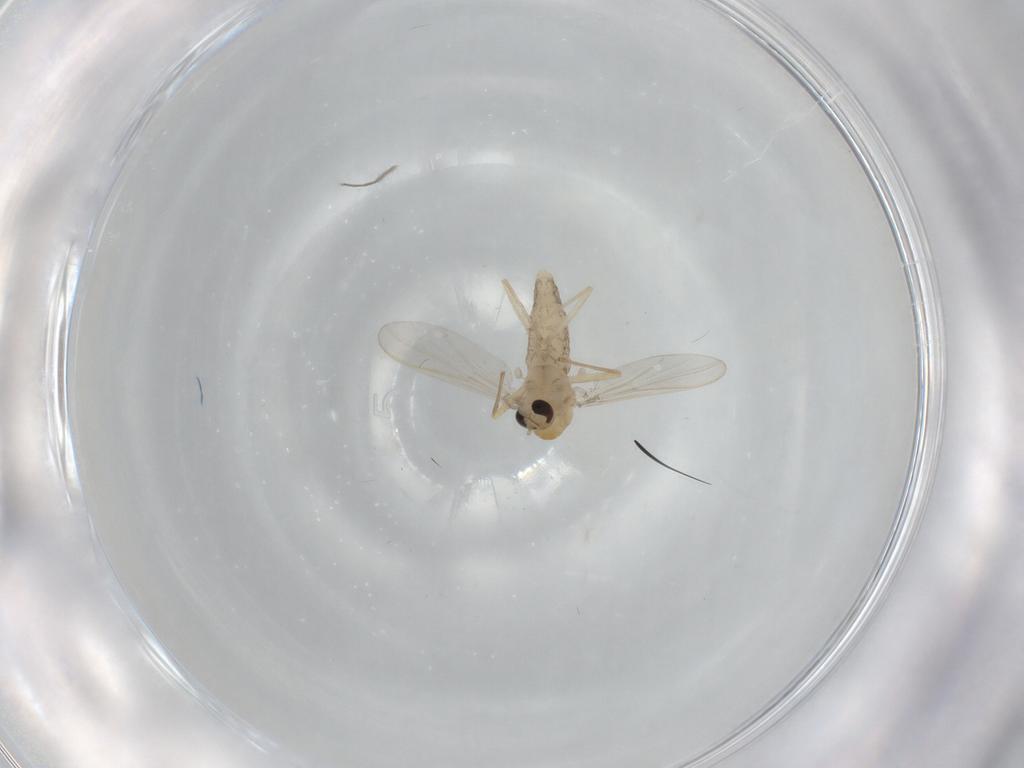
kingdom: Animalia
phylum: Arthropoda
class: Insecta
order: Diptera
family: Chironomidae
